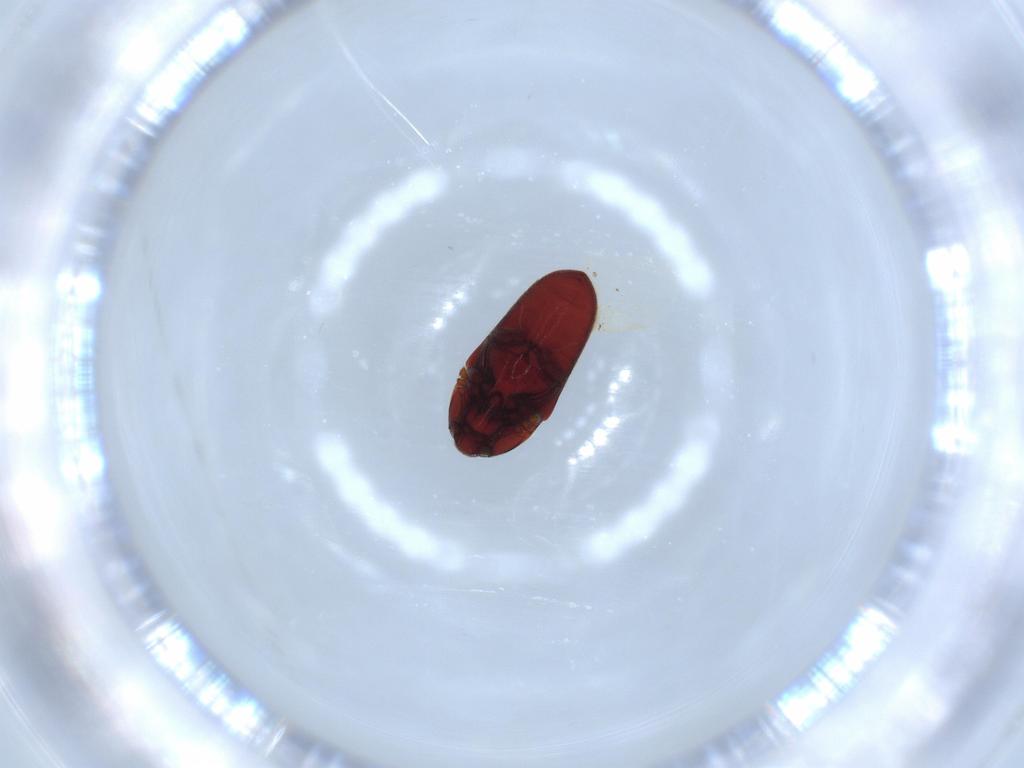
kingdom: Animalia
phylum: Arthropoda
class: Insecta
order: Coleoptera
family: Throscidae
